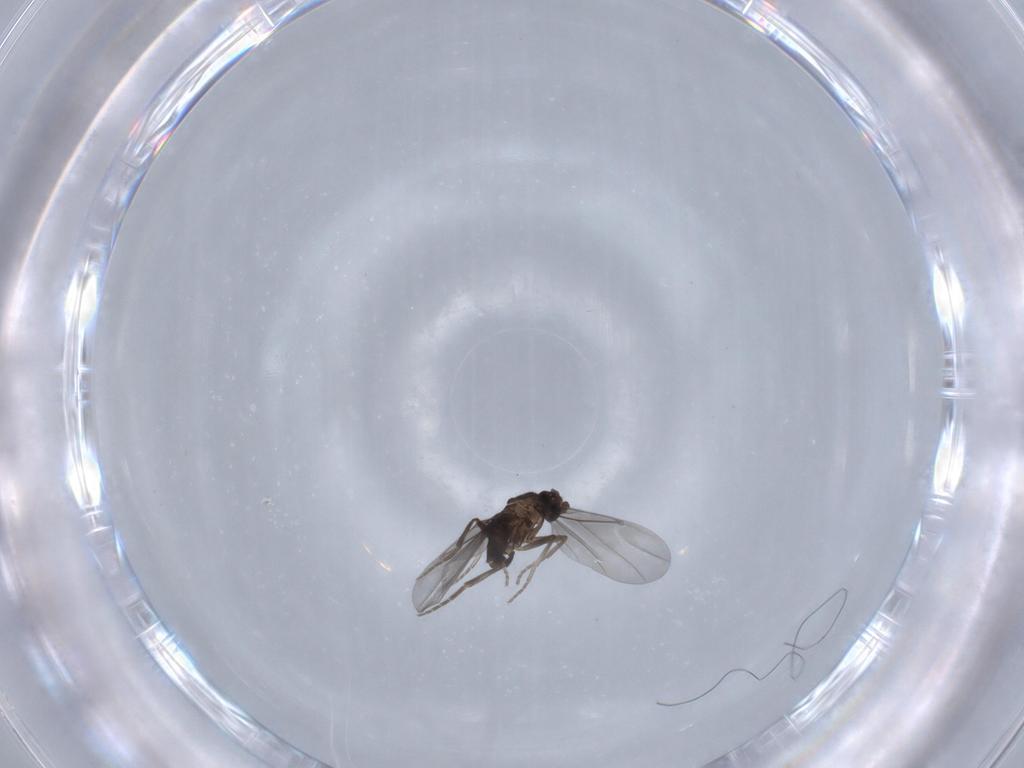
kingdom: Animalia
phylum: Arthropoda
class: Insecta
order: Diptera
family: Phoridae
